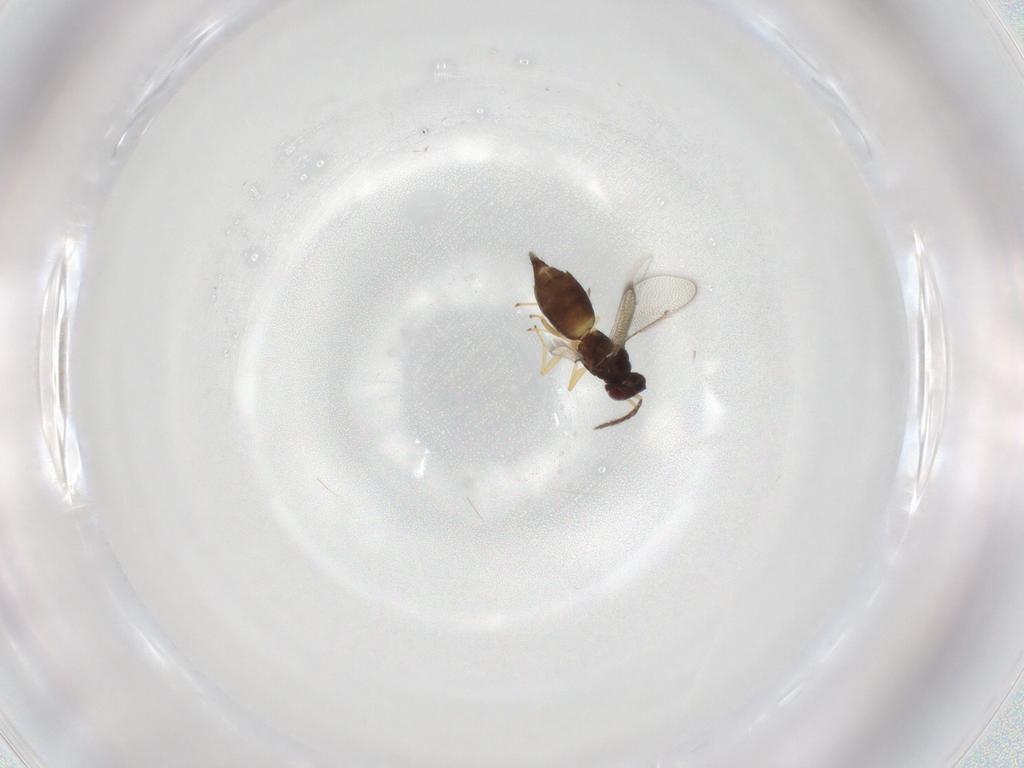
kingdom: Animalia
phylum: Arthropoda
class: Insecta
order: Hymenoptera
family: Eulophidae
